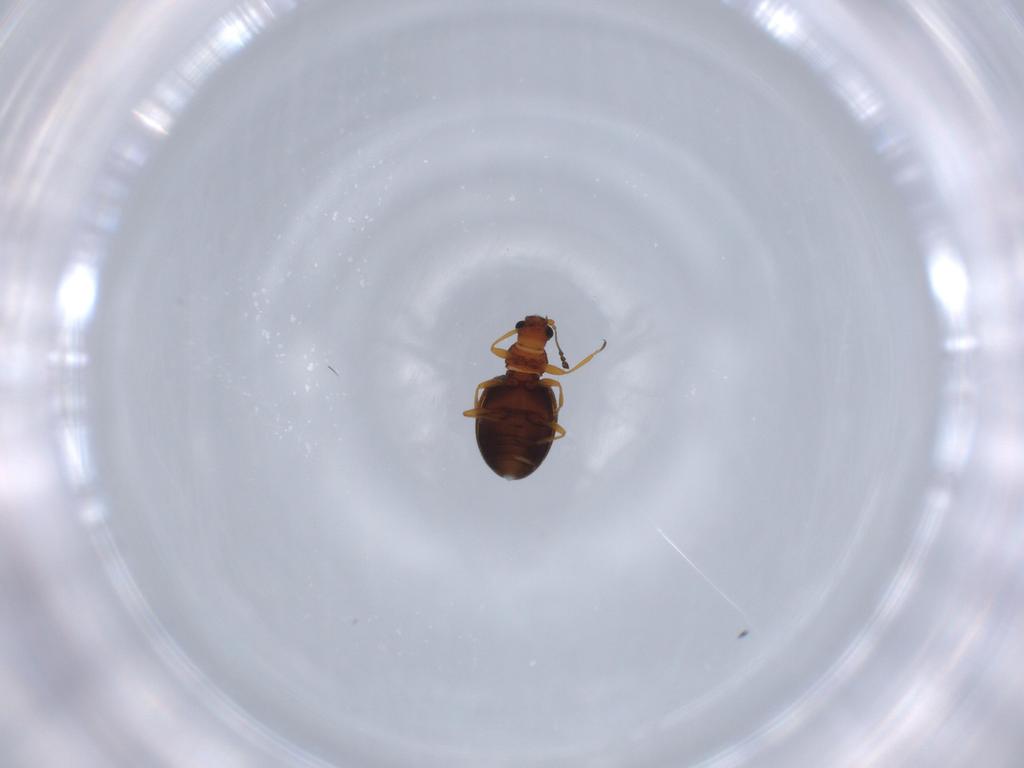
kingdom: Animalia
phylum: Arthropoda
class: Insecta
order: Coleoptera
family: Latridiidae
